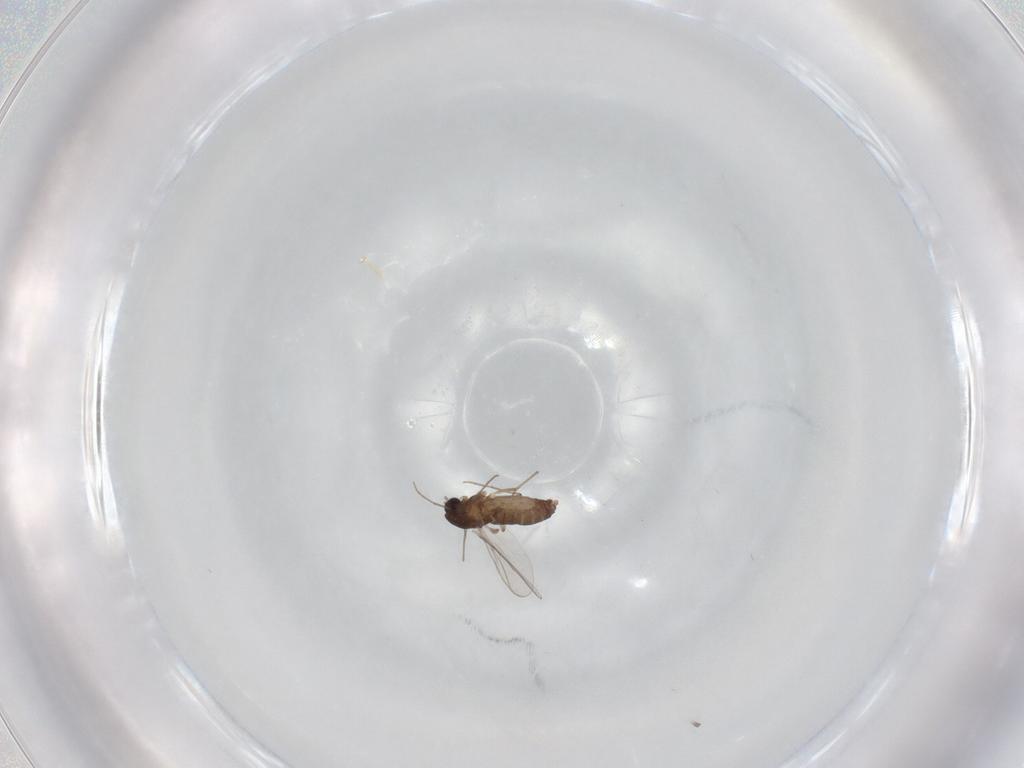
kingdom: Animalia
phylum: Arthropoda
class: Insecta
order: Diptera
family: Chironomidae
